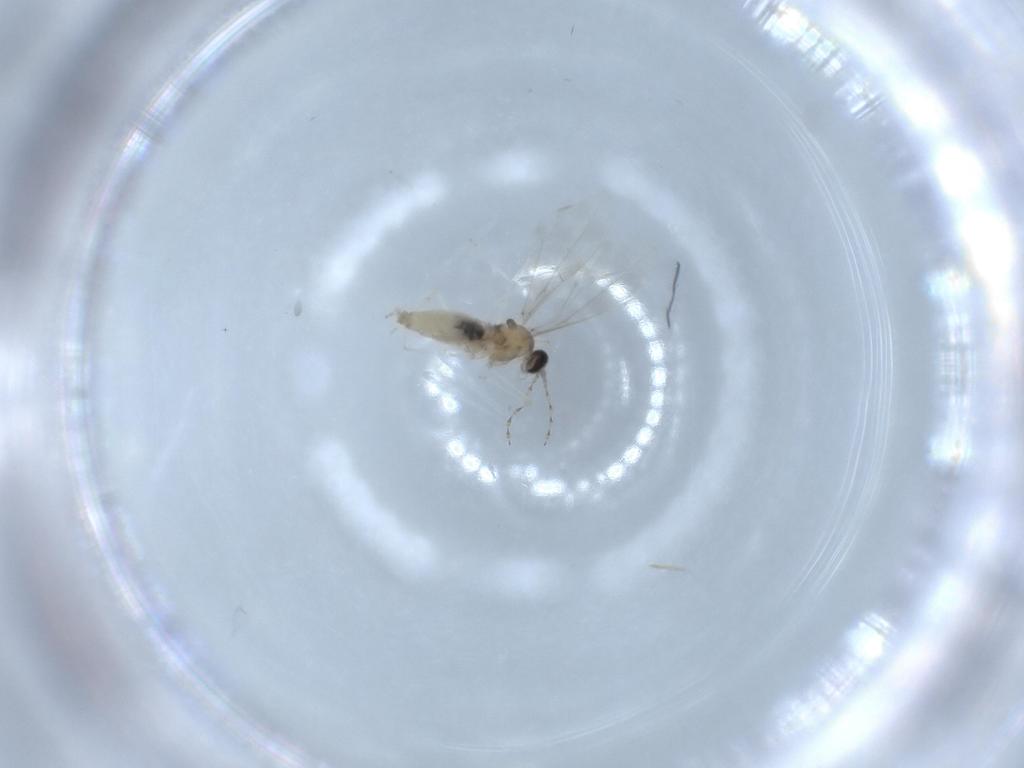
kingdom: Animalia
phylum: Arthropoda
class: Insecta
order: Diptera
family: Cecidomyiidae
